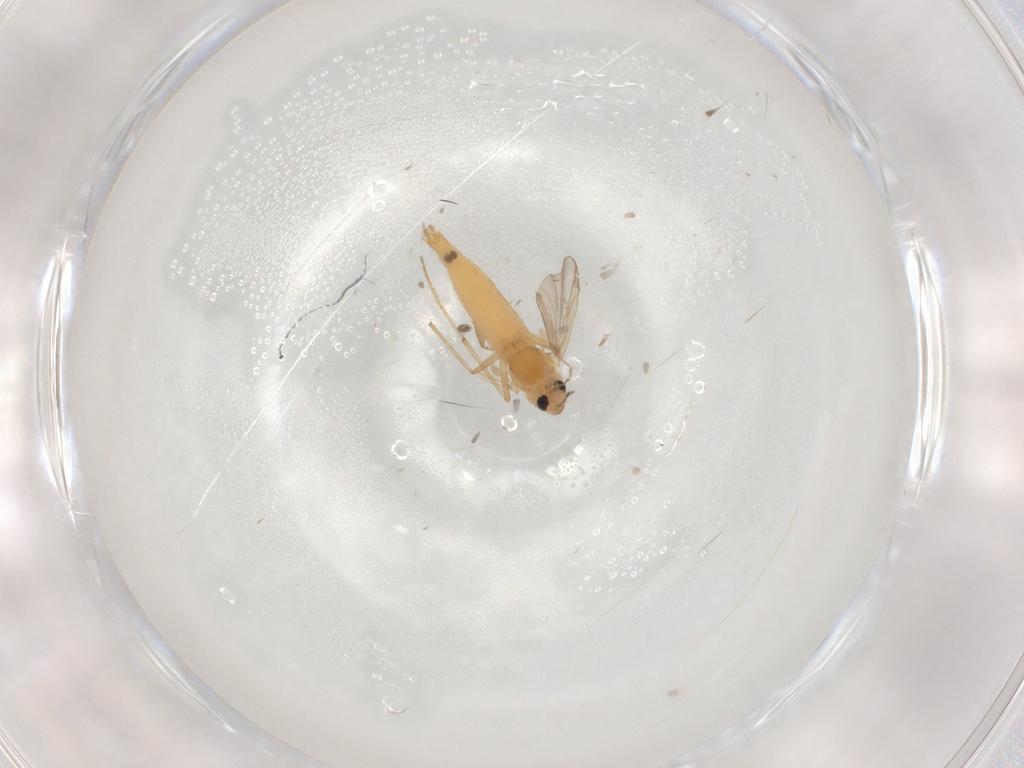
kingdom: Animalia
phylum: Arthropoda
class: Insecta
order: Diptera
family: Chironomidae
